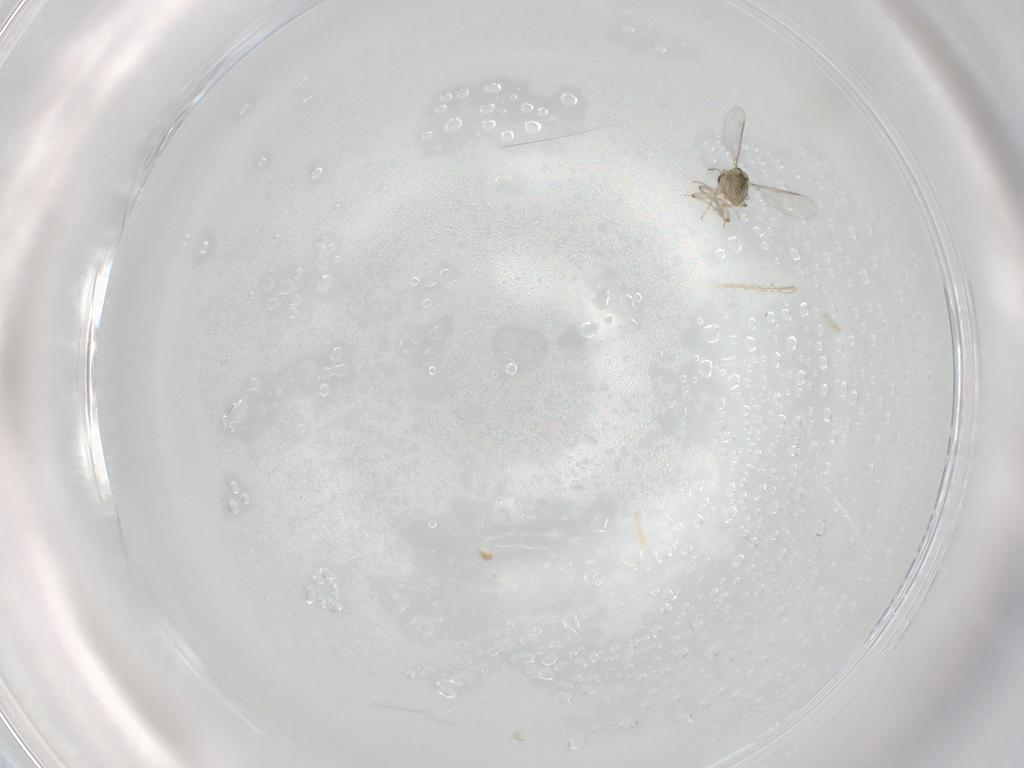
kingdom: Animalia
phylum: Arthropoda
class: Insecta
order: Diptera
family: Chironomidae
